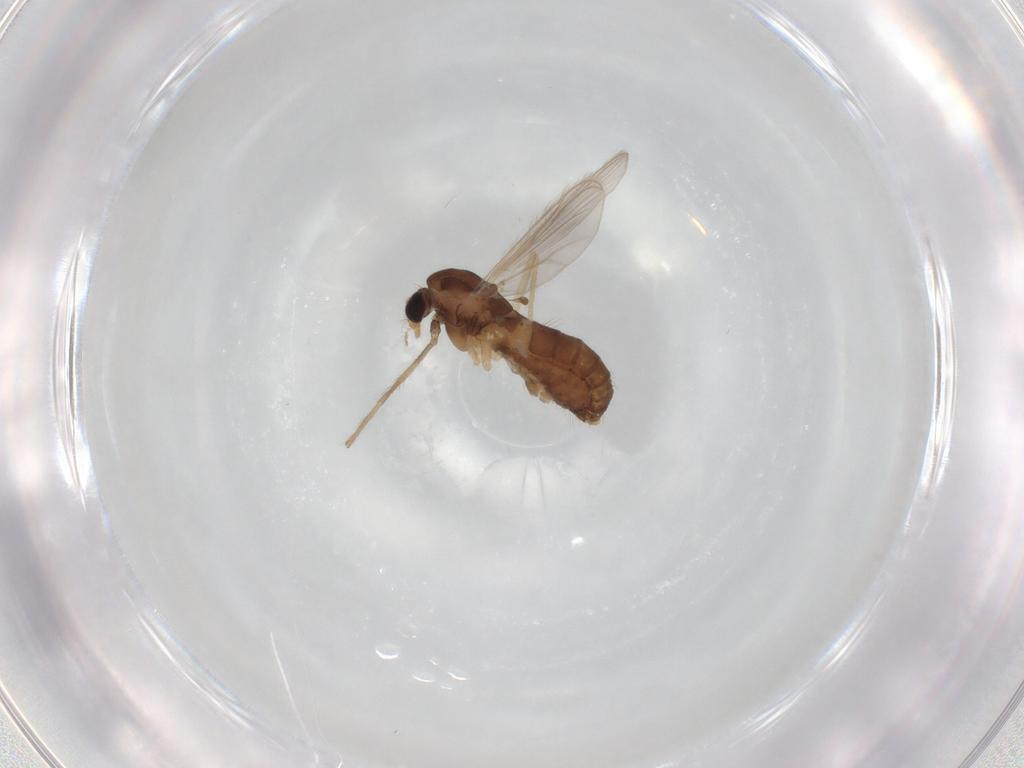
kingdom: Animalia
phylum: Arthropoda
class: Insecta
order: Diptera
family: Chironomidae
